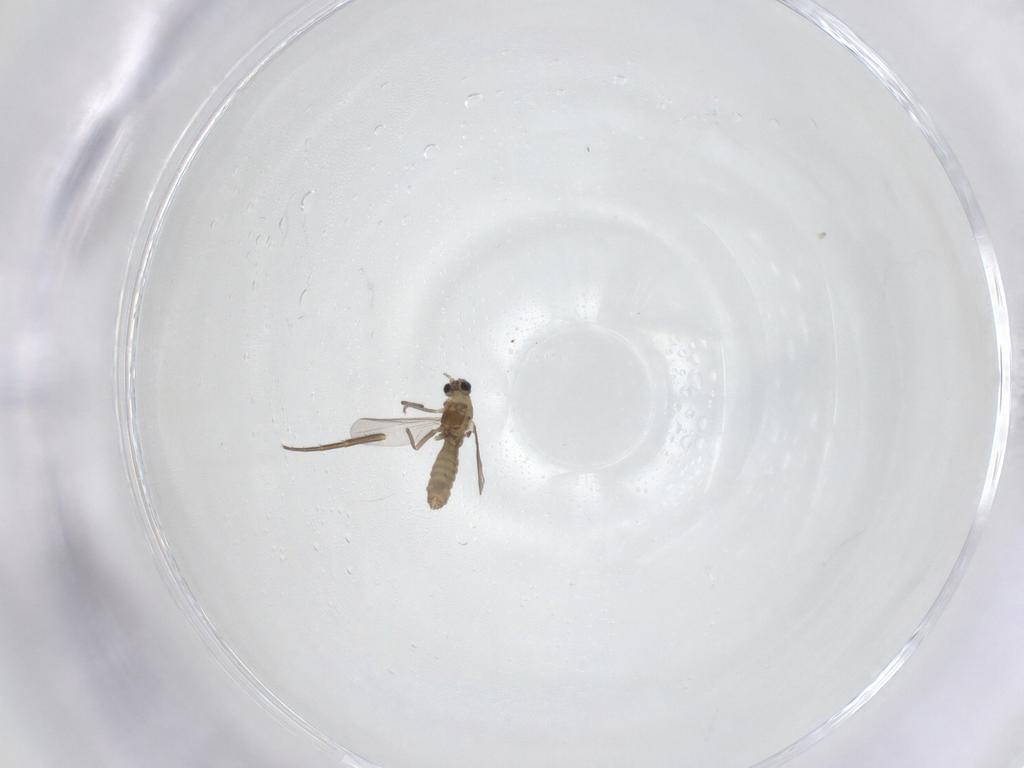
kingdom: Animalia
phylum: Arthropoda
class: Insecta
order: Diptera
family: Chironomidae
